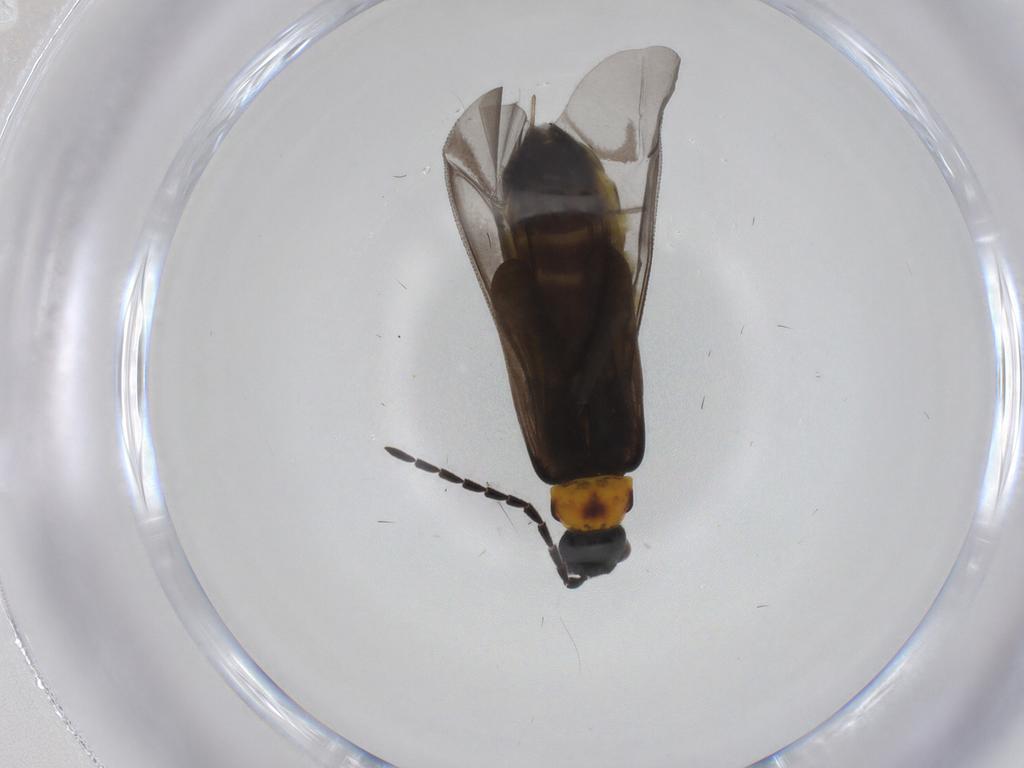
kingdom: Animalia
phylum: Arthropoda
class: Insecta
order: Coleoptera
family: Cantharidae
